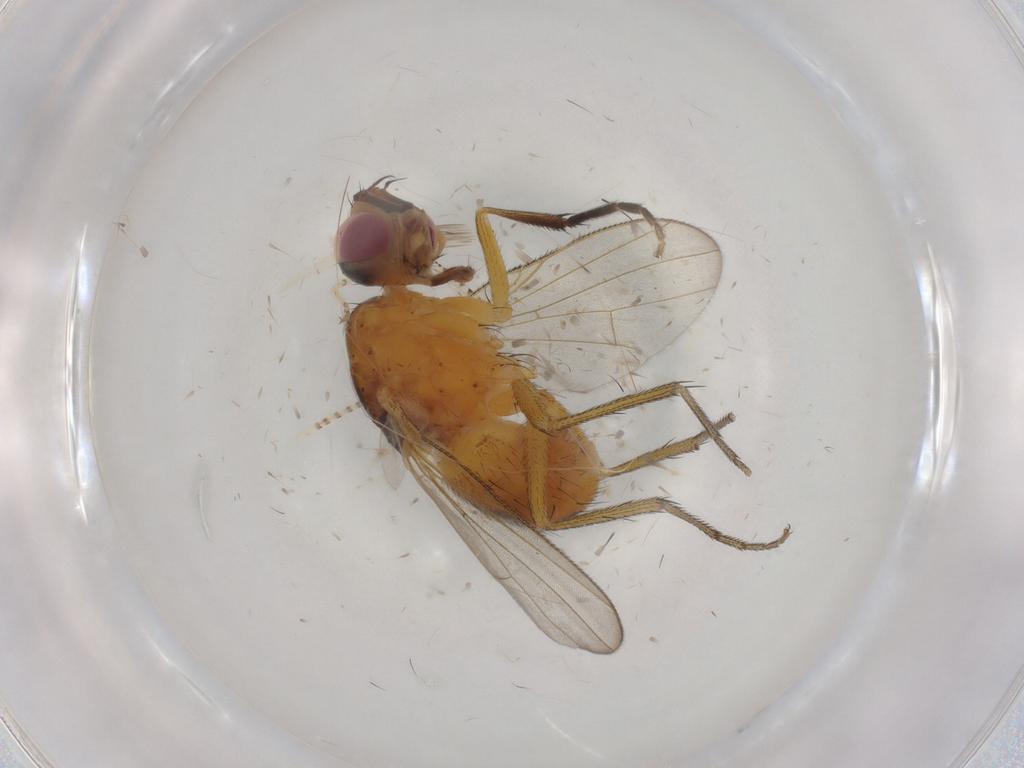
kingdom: Animalia
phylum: Arthropoda
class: Insecta
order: Diptera
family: Muscidae
